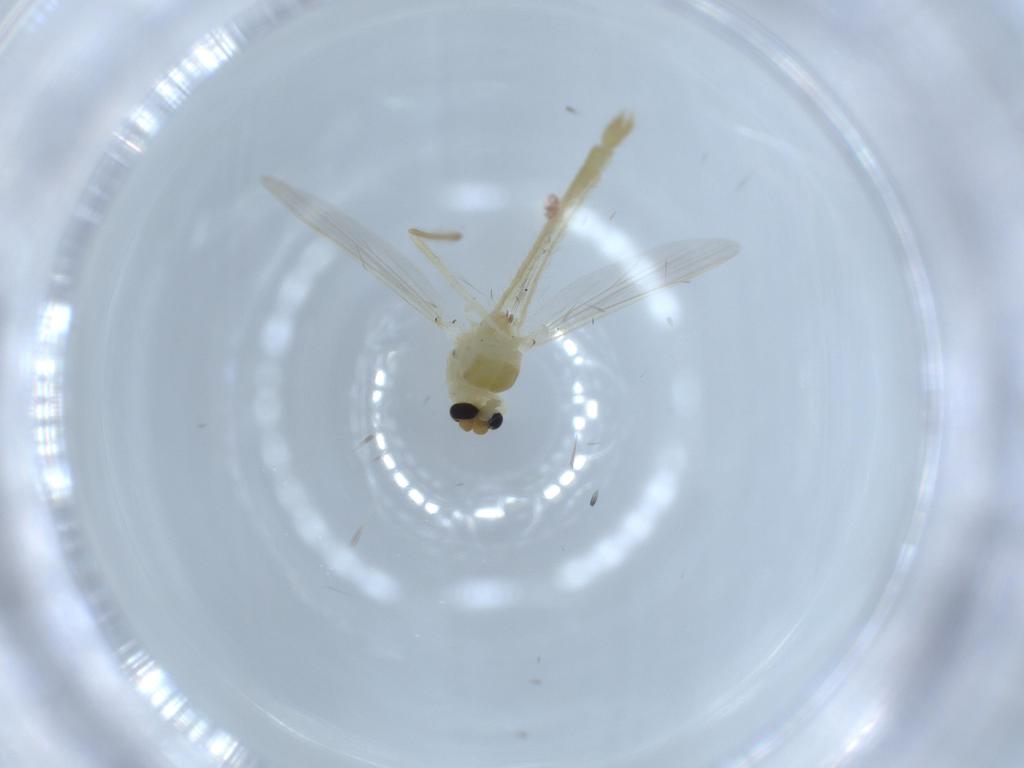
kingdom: Animalia
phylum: Arthropoda
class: Insecta
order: Diptera
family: Chironomidae
